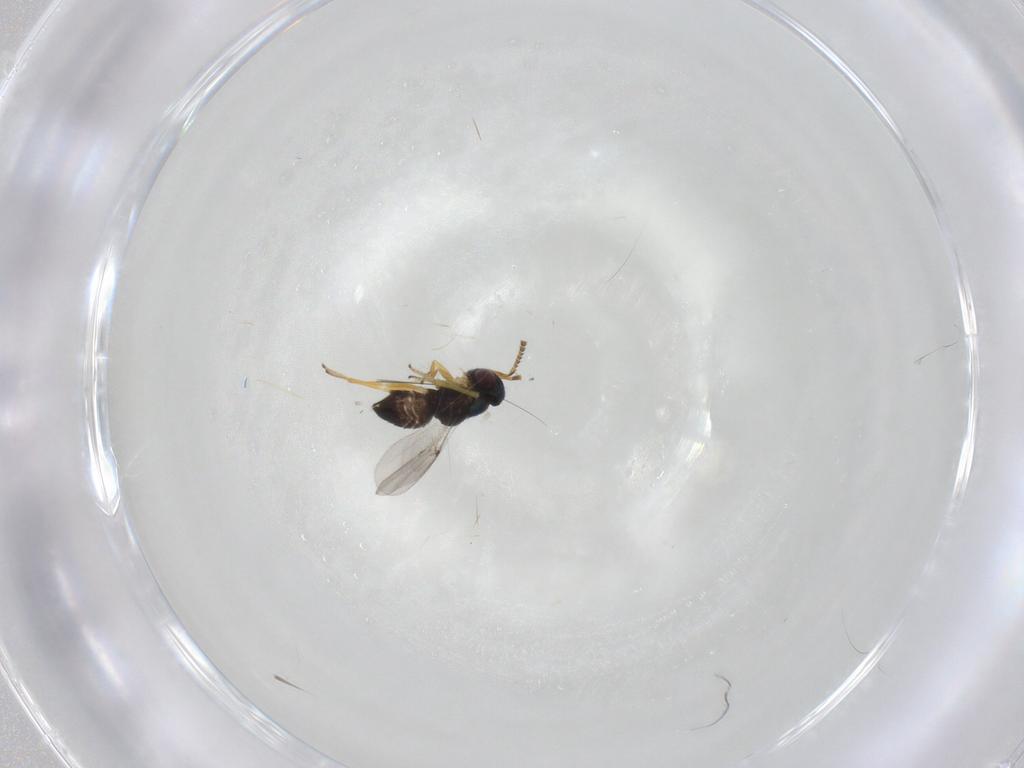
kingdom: Animalia
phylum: Arthropoda
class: Insecta
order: Hymenoptera
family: Encyrtidae
